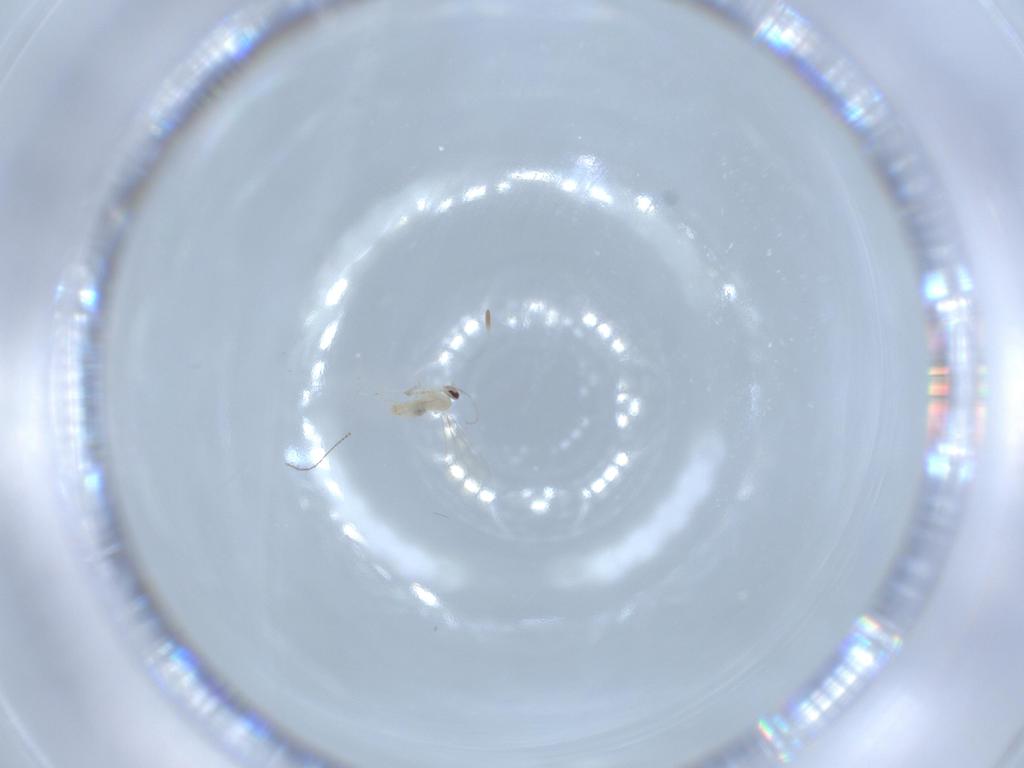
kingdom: Animalia
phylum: Arthropoda
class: Insecta
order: Diptera
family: Cecidomyiidae
